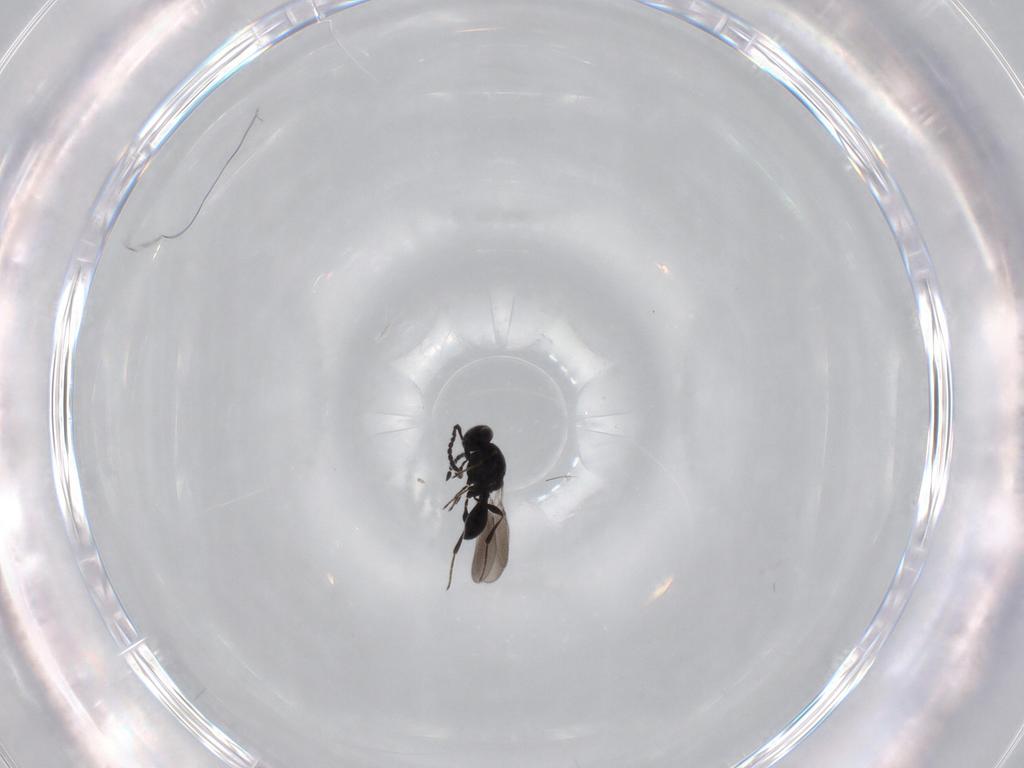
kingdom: Animalia
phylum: Arthropoda
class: Insecta
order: Hymenoptera
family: Platygastridae
